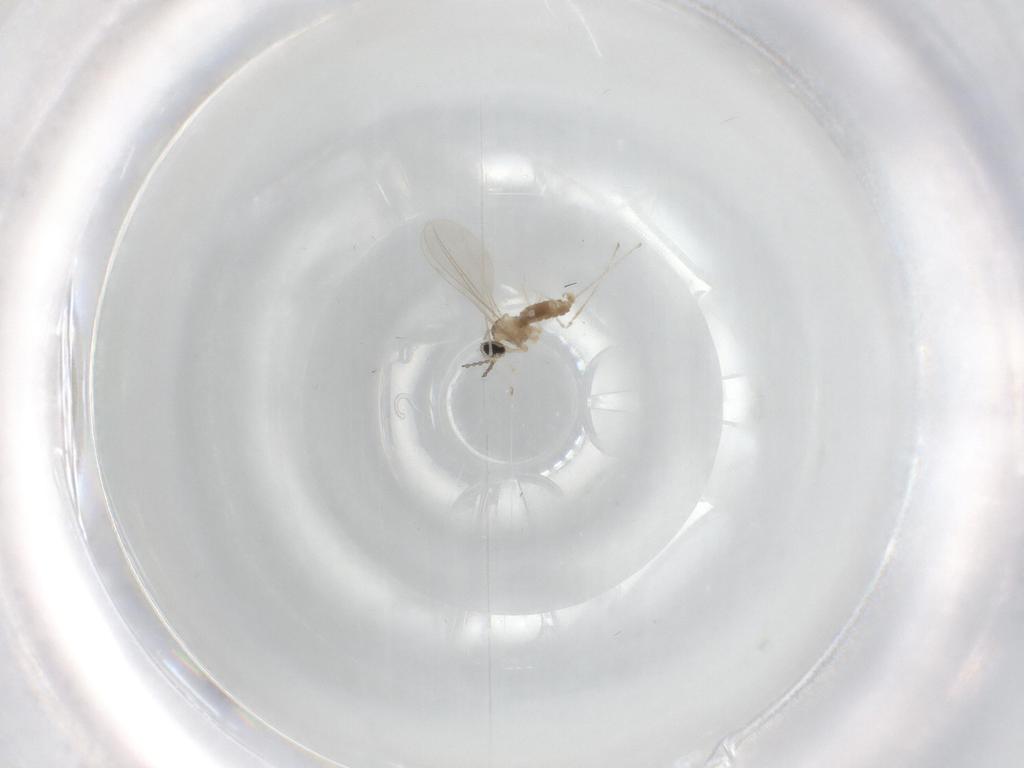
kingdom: Animalia
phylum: Arthropoda
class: Insecta
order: Diptera
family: Cecidomyiidae
